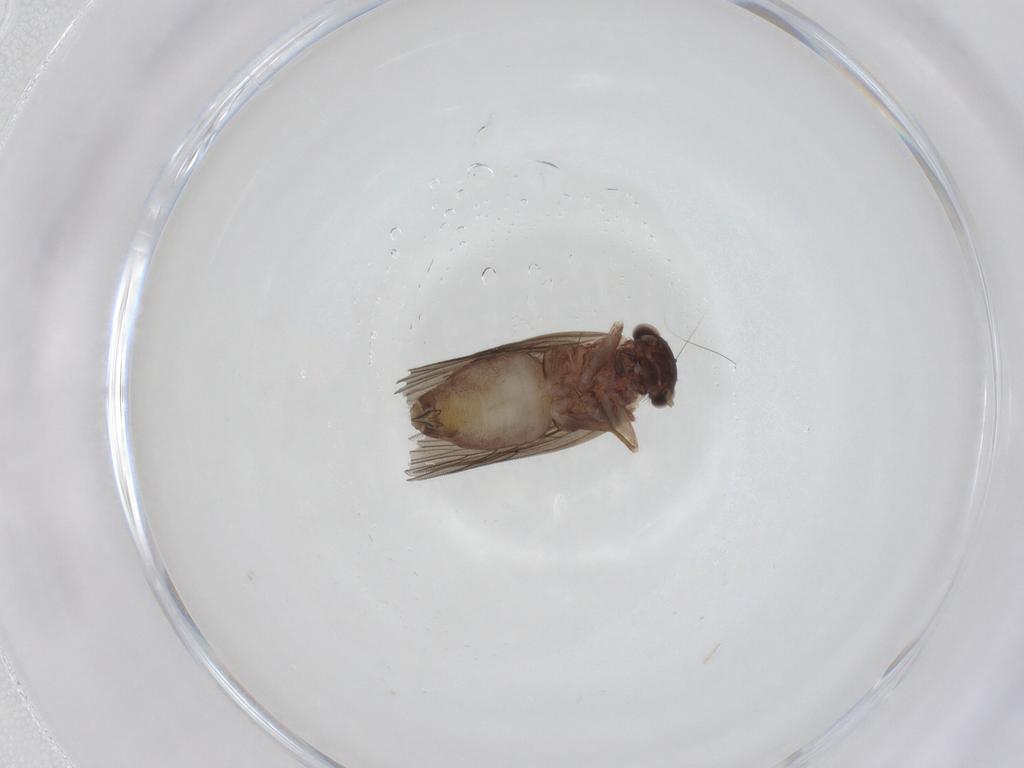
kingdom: Animalia
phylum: Arthropoda
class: Insecta
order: Psocodea
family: Lepidopsocidae
